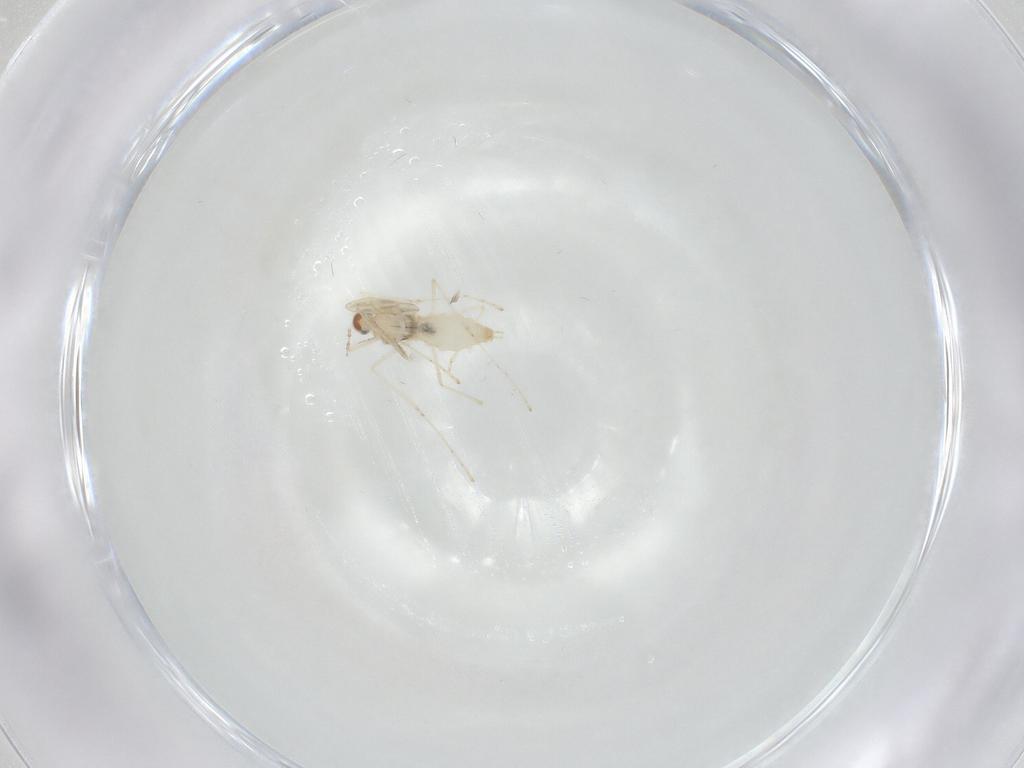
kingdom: Animalia
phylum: Arthropoda
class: Insecta
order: Diptera
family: Cecidomyiidae
